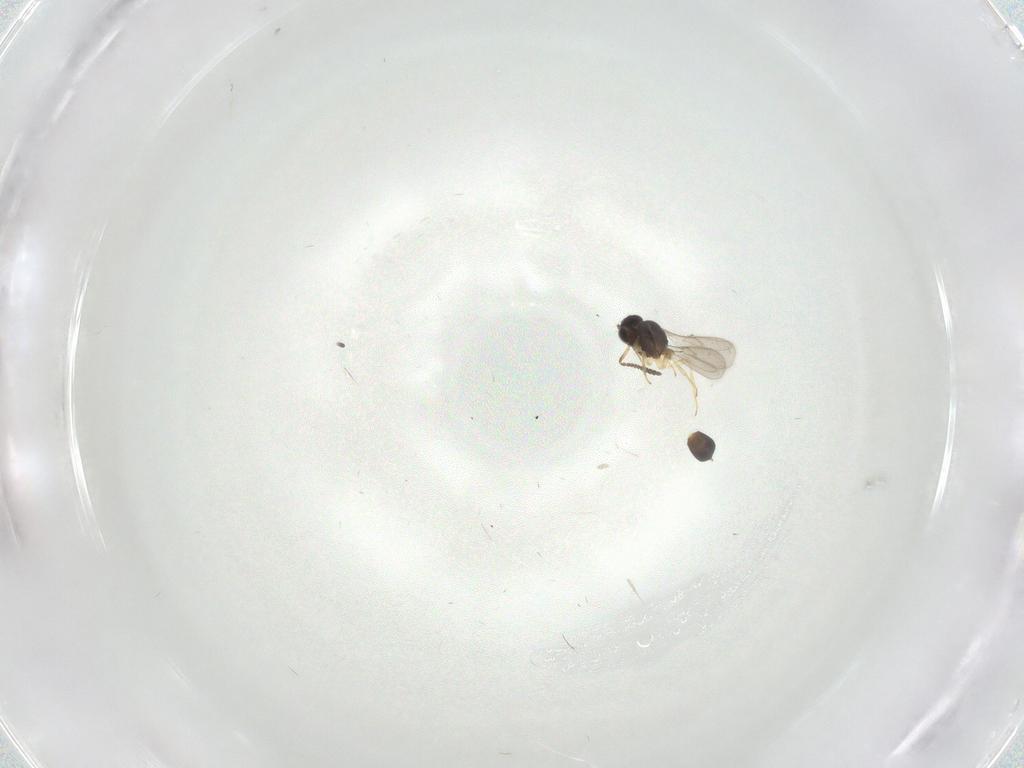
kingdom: Animalia
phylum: Arthropoda
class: Insecta
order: Hymenoptera
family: Scelionidae
